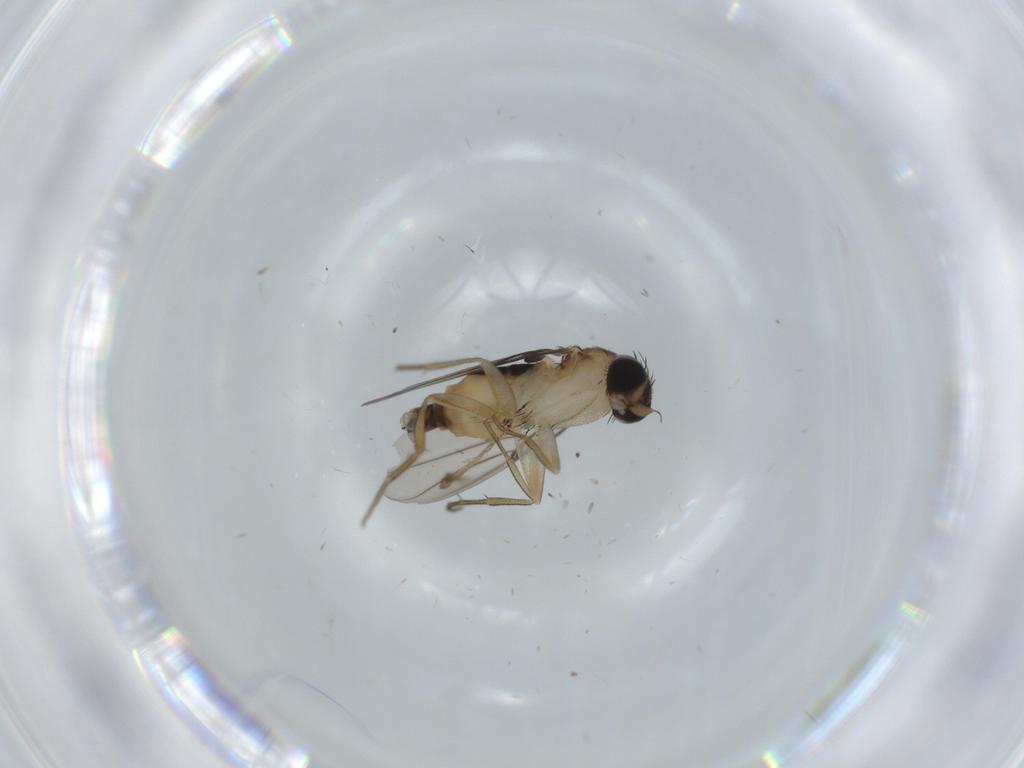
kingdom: Animalia
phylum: Arthropoda
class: Insecta
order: Diptera
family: Phoridae
